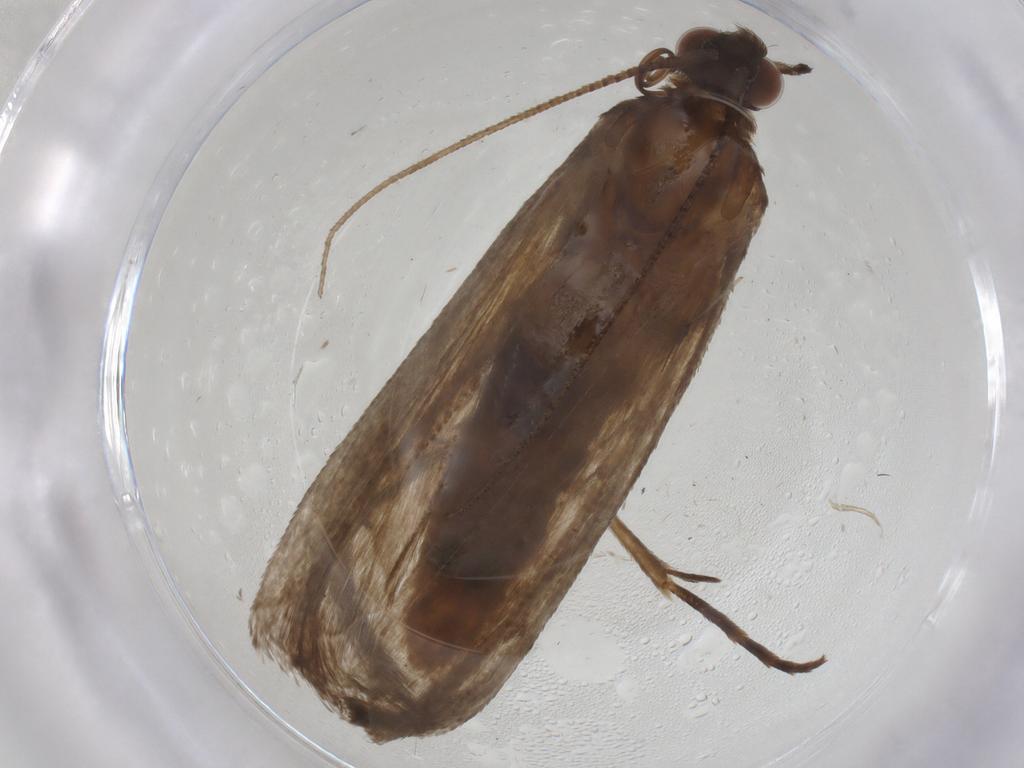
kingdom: Animalia
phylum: Arthropoda
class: Insecta
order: Lepidoptera
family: Pyralidae
